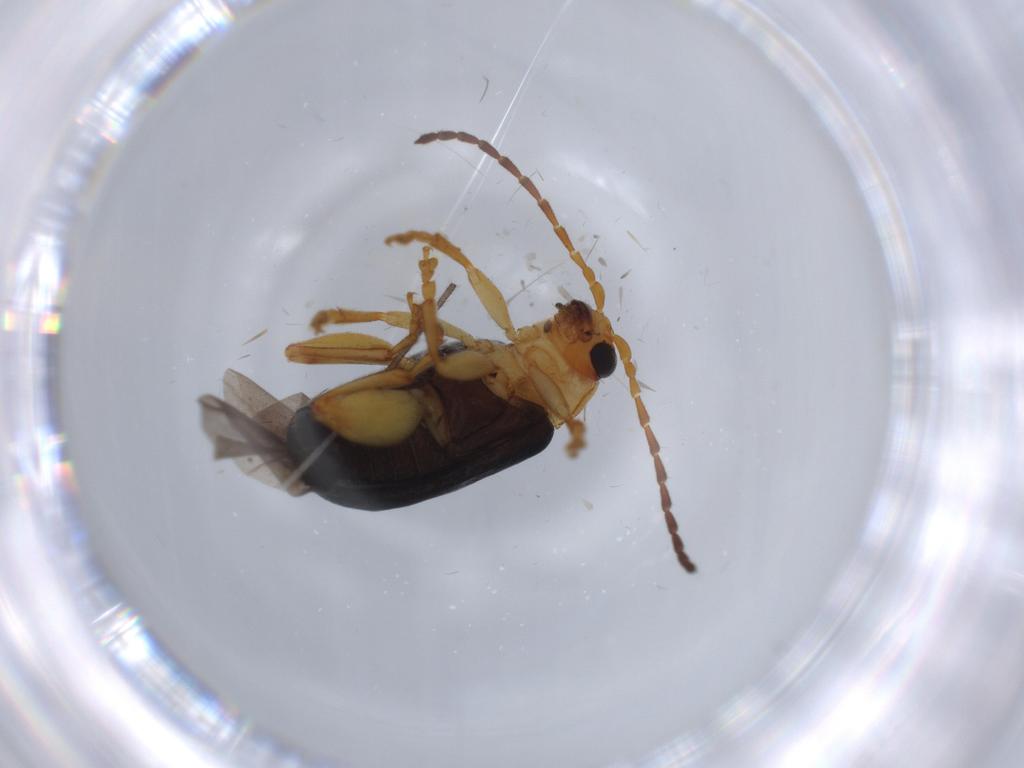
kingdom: Animalia
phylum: Arthropoda
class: Insecta
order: Coleoptera
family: Chrysomelidae
